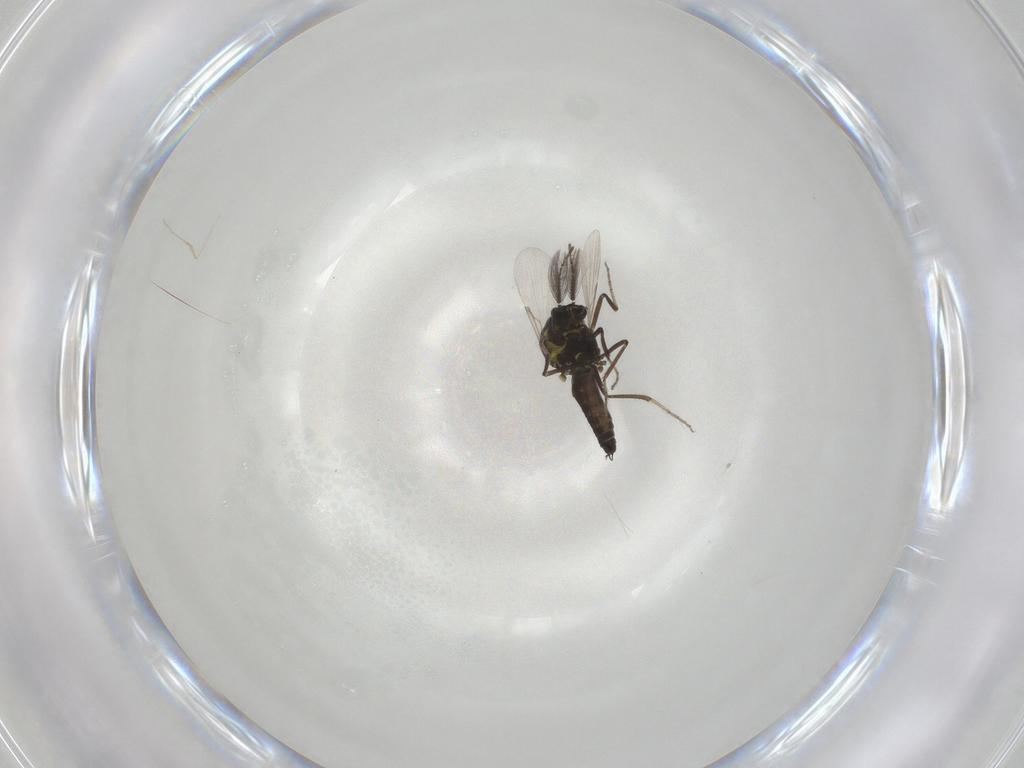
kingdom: Animalia
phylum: Arthropoda
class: Insecta
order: Diptera
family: Ceratopogonidae
